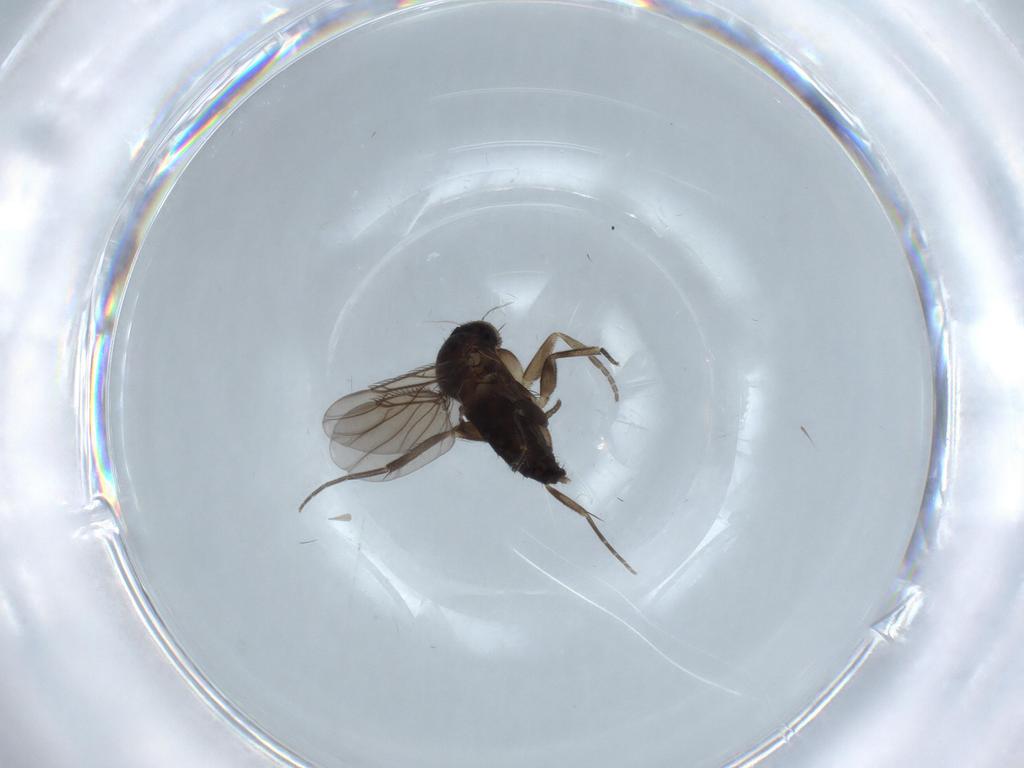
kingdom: Animalia
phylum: Arthropoda
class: Insecta
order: Diptera
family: Phoridae
